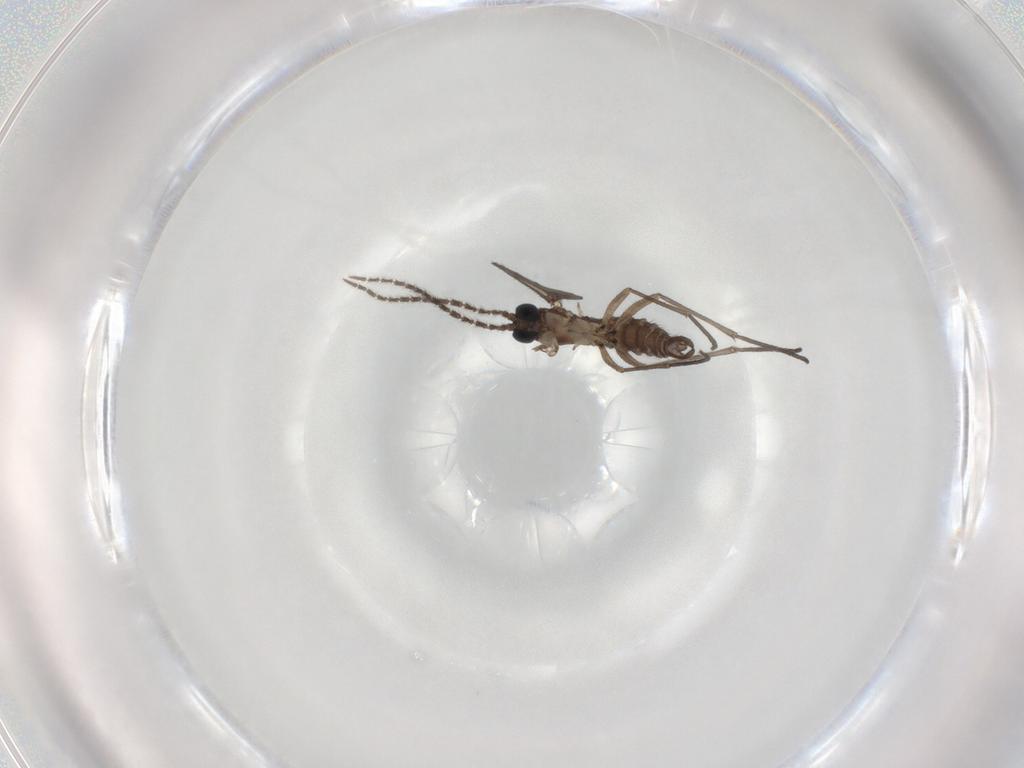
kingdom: Animalia
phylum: Arthropoda
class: Insecta
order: Diptera
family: Sciaridae
